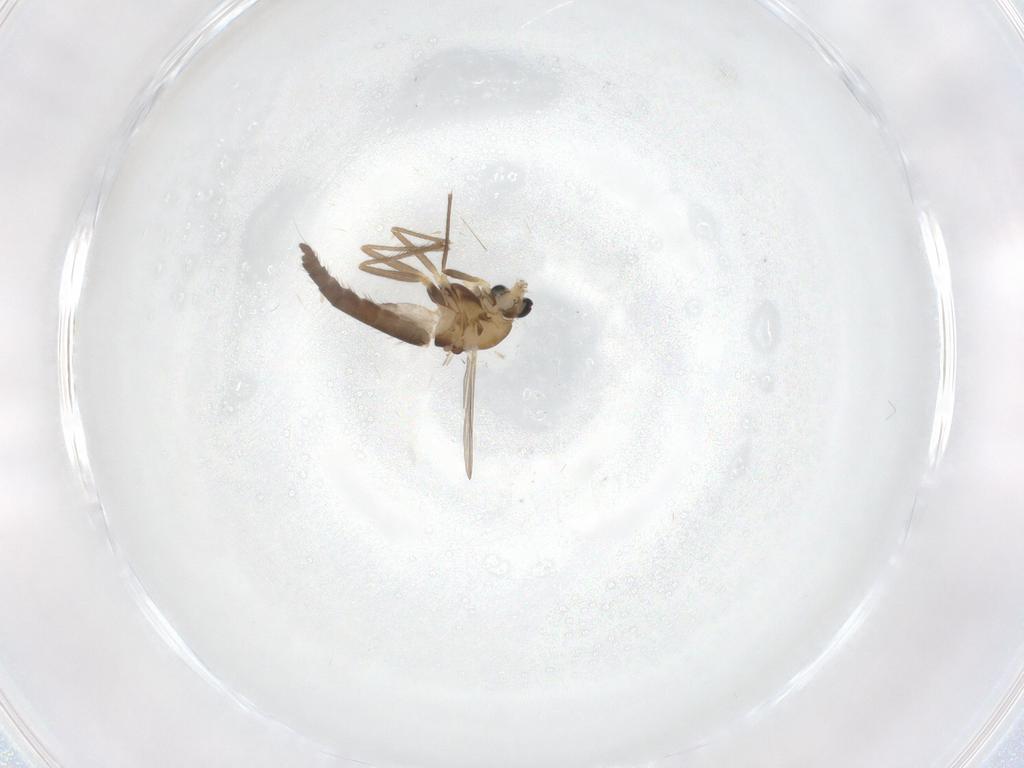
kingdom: Animalia
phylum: Arthropoda
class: Insecta
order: Diptera
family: Chironomidae
